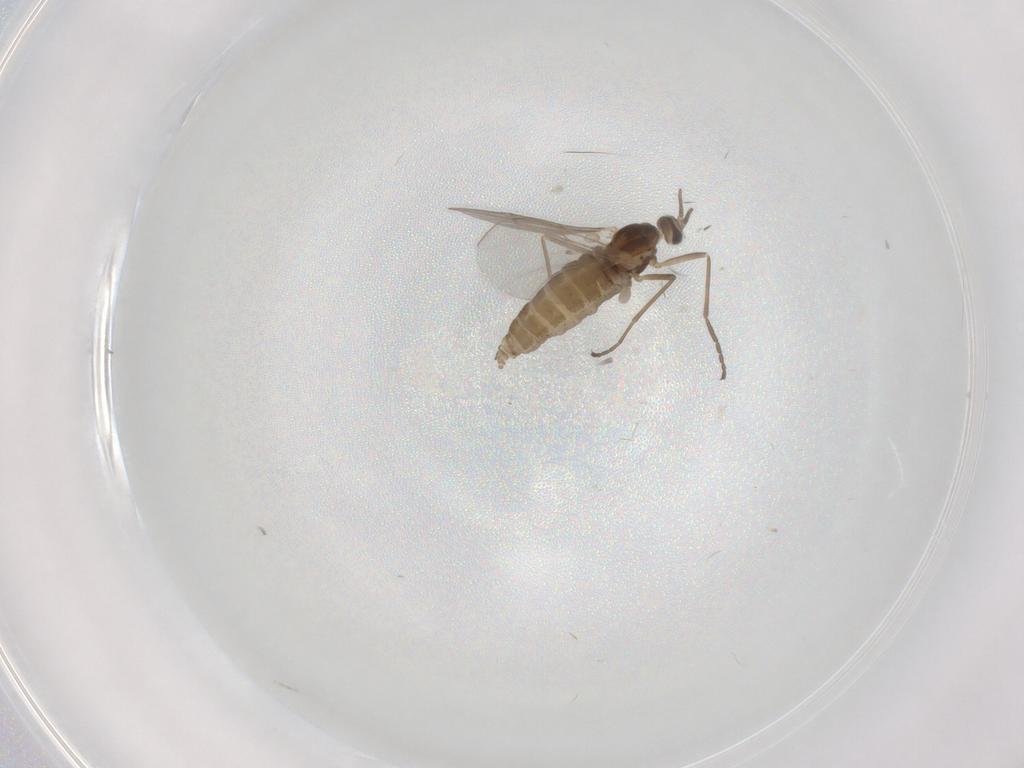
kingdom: Animalia
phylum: Arthropoda
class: Insecta
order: Diptera
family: Cecidomyiidae
